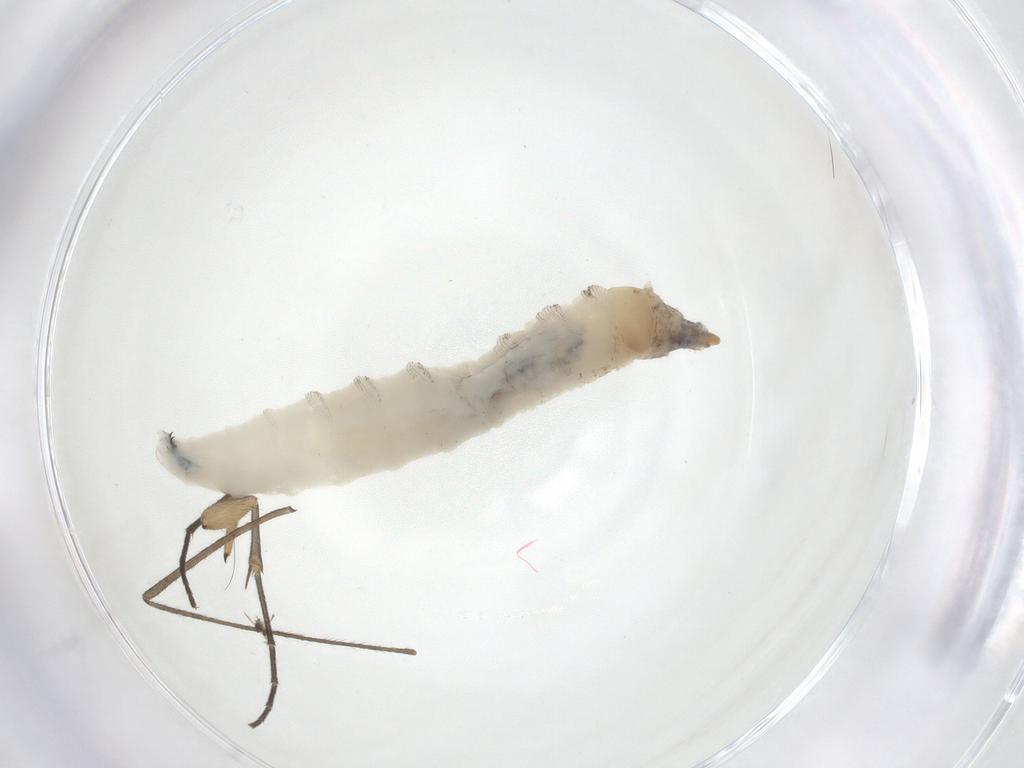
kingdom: Animalia
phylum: Arthropoda
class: Insecta
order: Diptera
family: Drosophilidae
